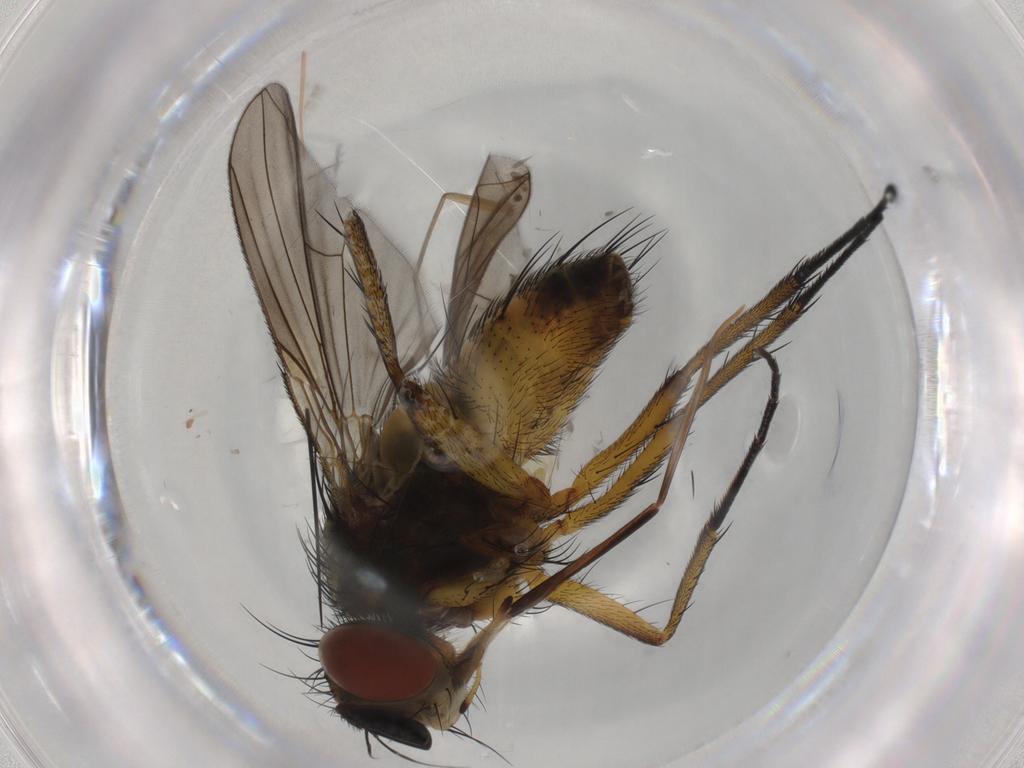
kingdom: Animalia
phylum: Arthropoda
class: Insecta
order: Diptera
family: Tachinidae
